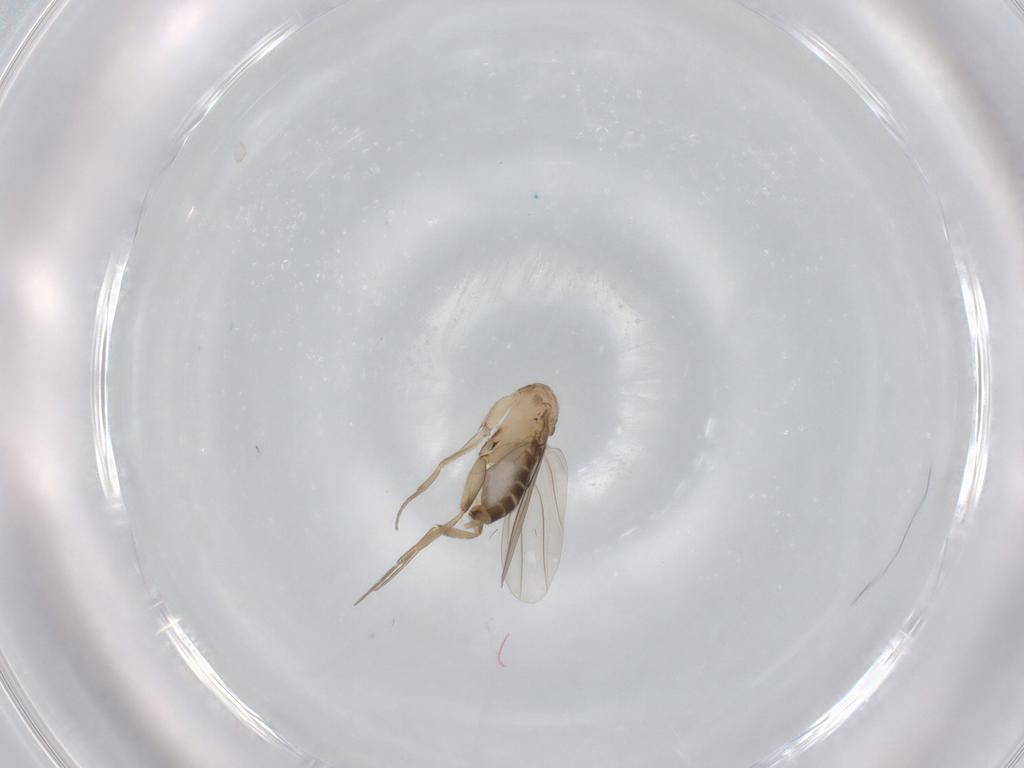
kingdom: Animalia
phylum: Arthropoda
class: Insecta
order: Diptera
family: Phoridae
